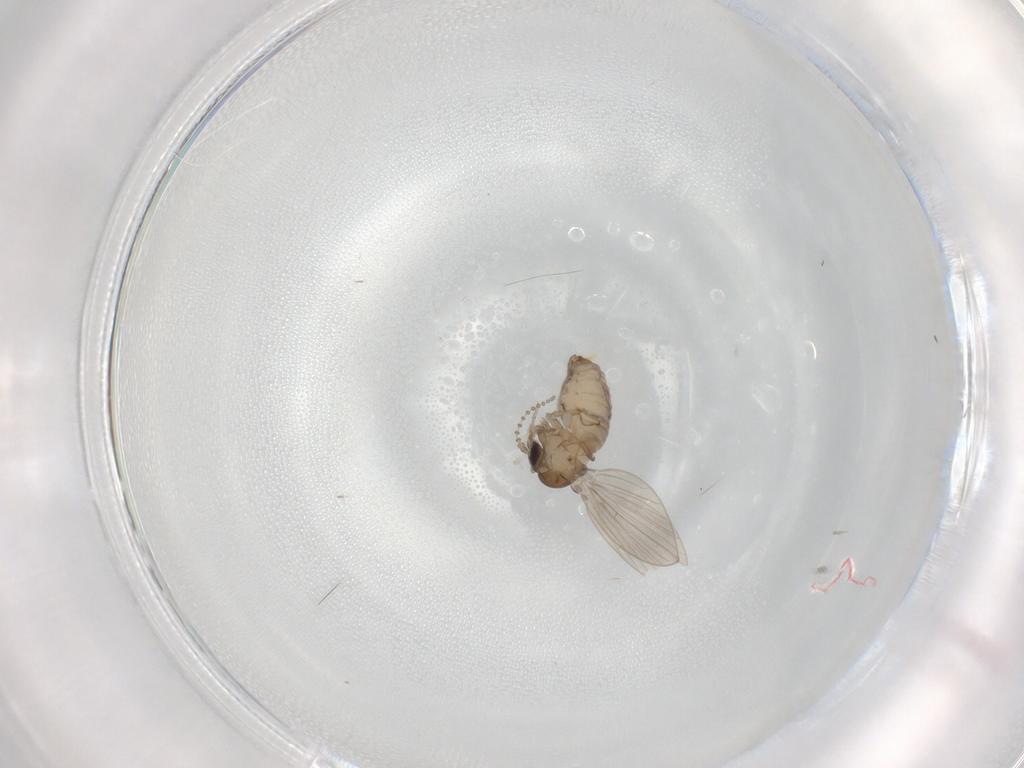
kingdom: Animalia
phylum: Arthropoda
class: Insecta
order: Diptera
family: Psychodidae
